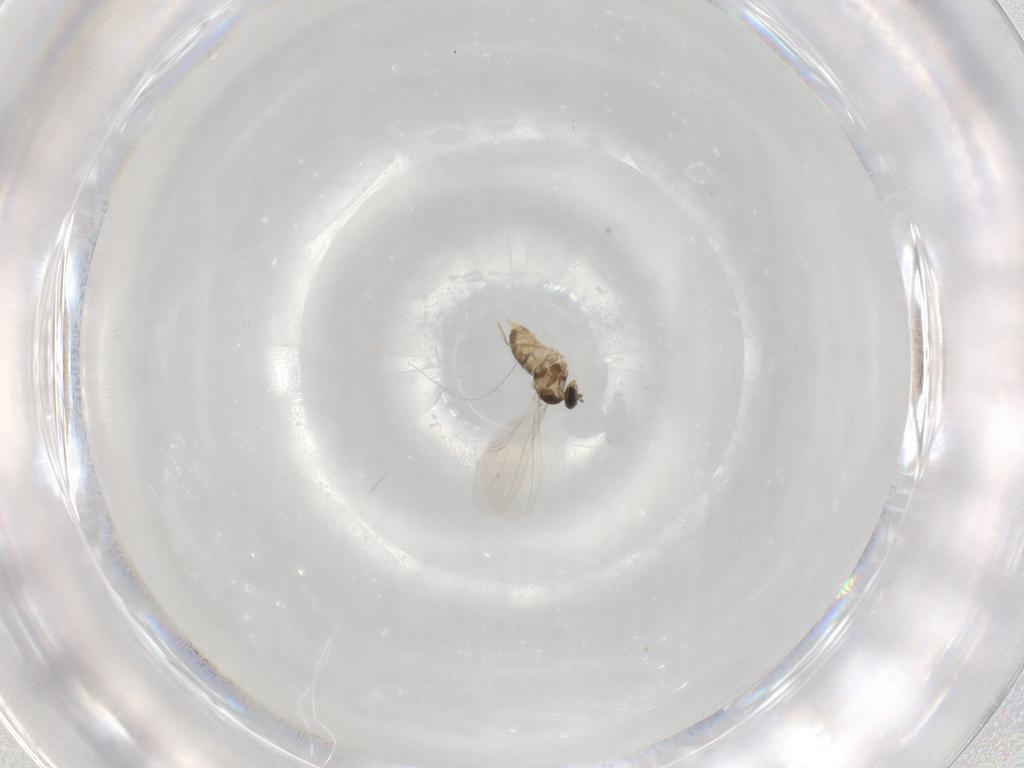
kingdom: Animalia
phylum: Arthropoda
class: Insecta
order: Diptera
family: Cecidomyiidae
